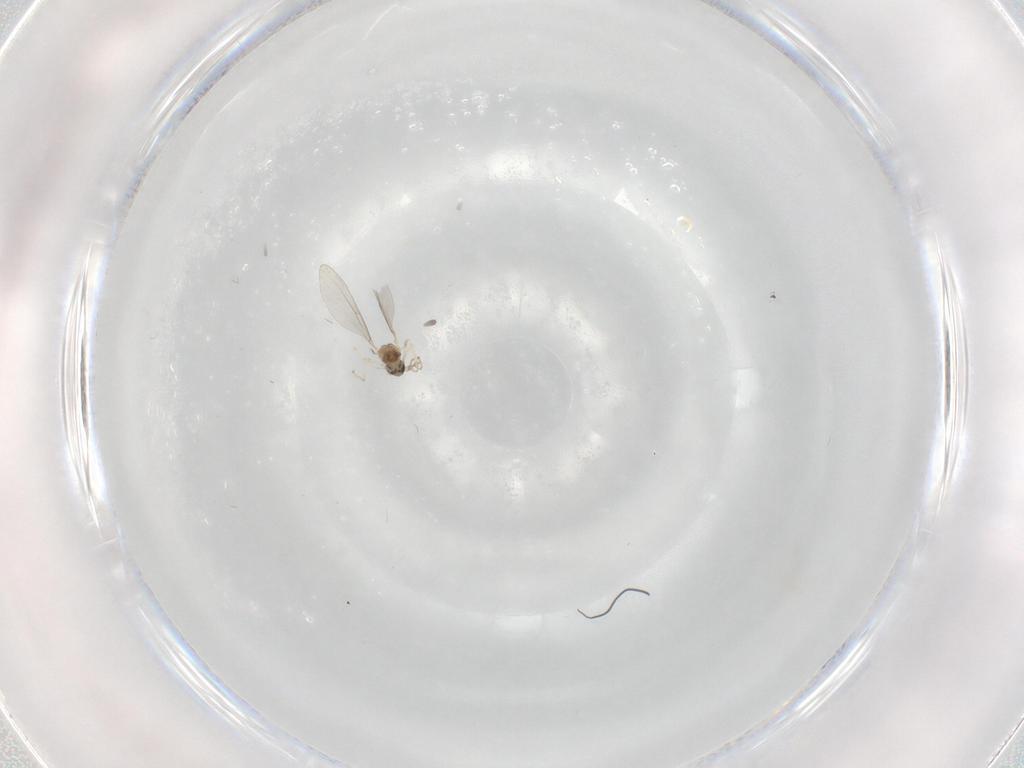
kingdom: Animalia
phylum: Arthropoda
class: Insecta
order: Diptera
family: Cecidomyiidae
